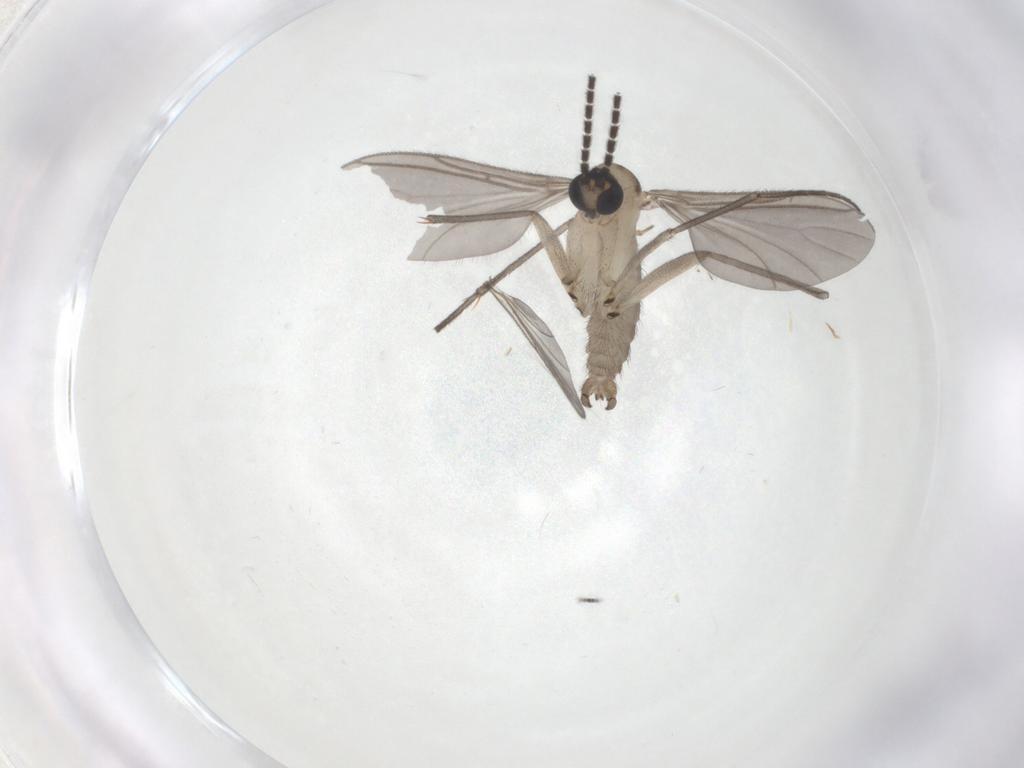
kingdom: Animalia
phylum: Arthropoda
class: Insecta
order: Diptera
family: Sciaridae
